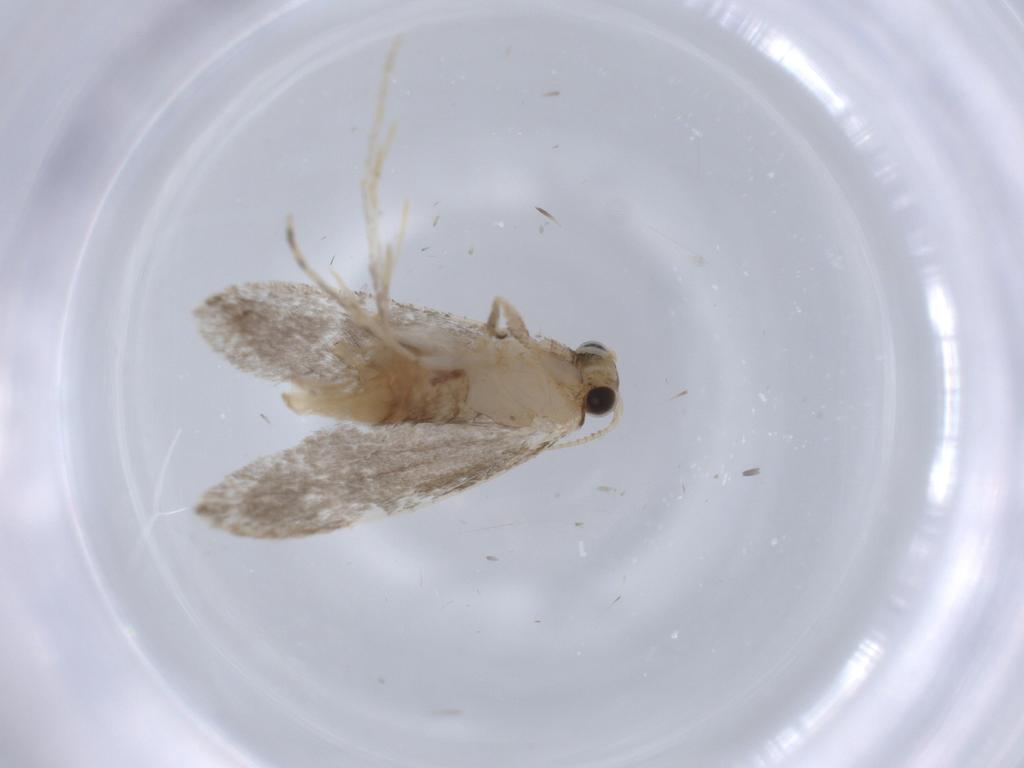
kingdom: Animalia
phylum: Arthropoda
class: Insecta
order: Lepidoptera
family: Tineidae
